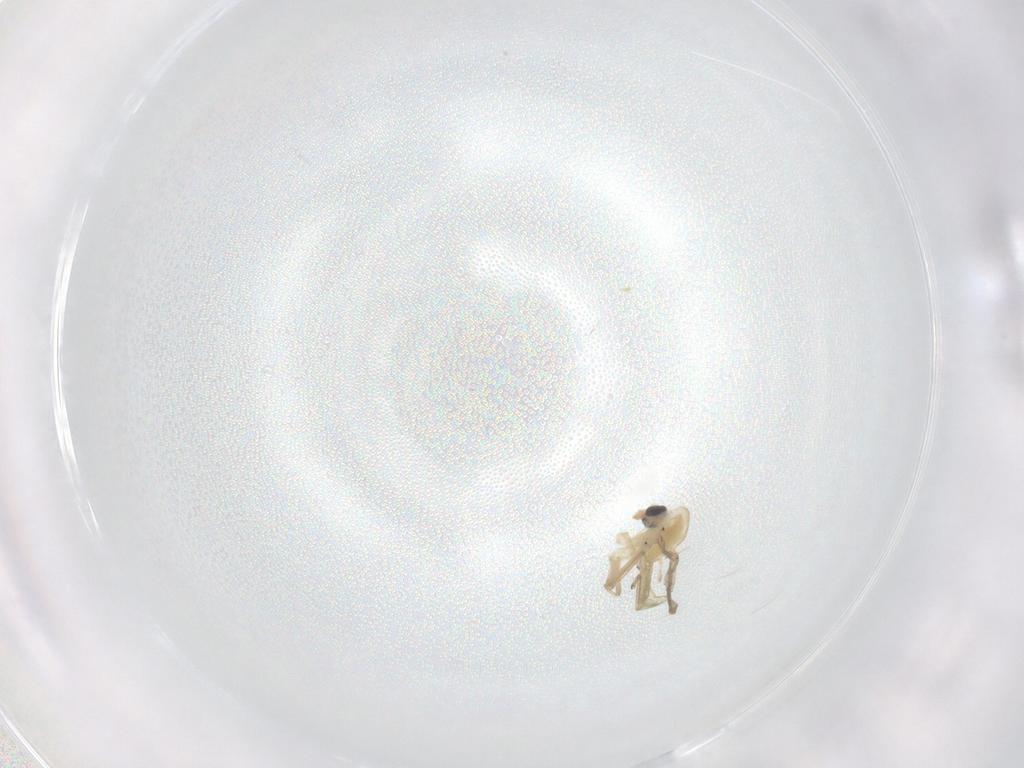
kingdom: Animalia
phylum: Arthropoda
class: Insecta
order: Diptera
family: Chironomidae
